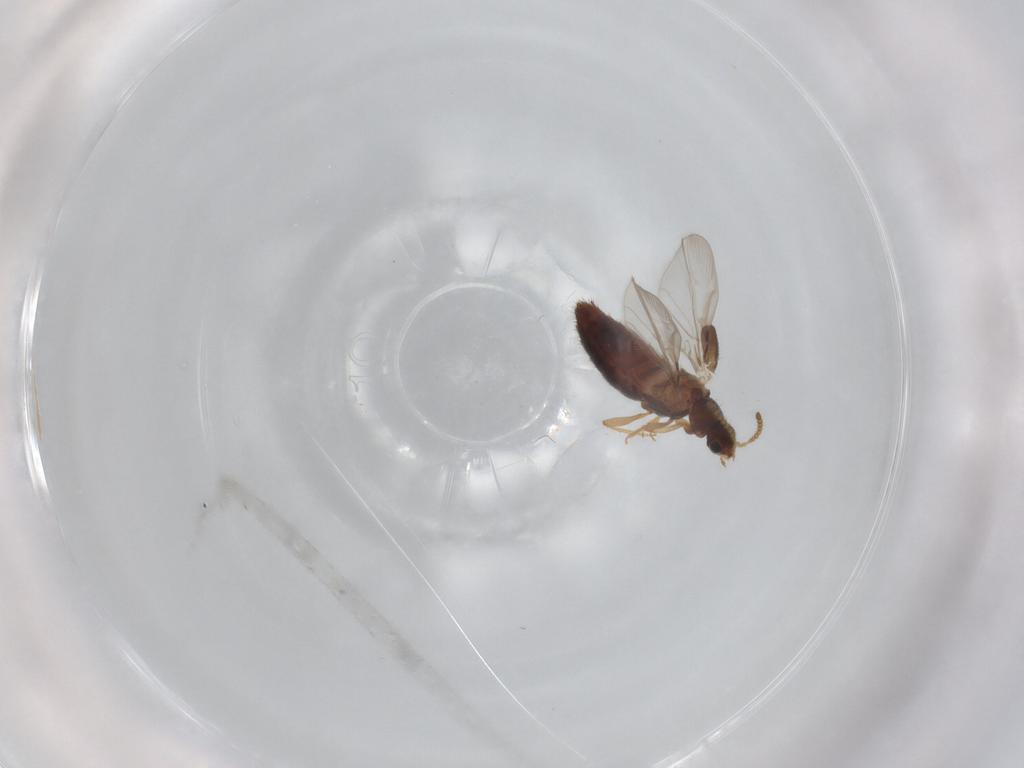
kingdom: Animalia
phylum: Arthropoda
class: Insecta
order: Coleoptera
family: Staphylinidae
